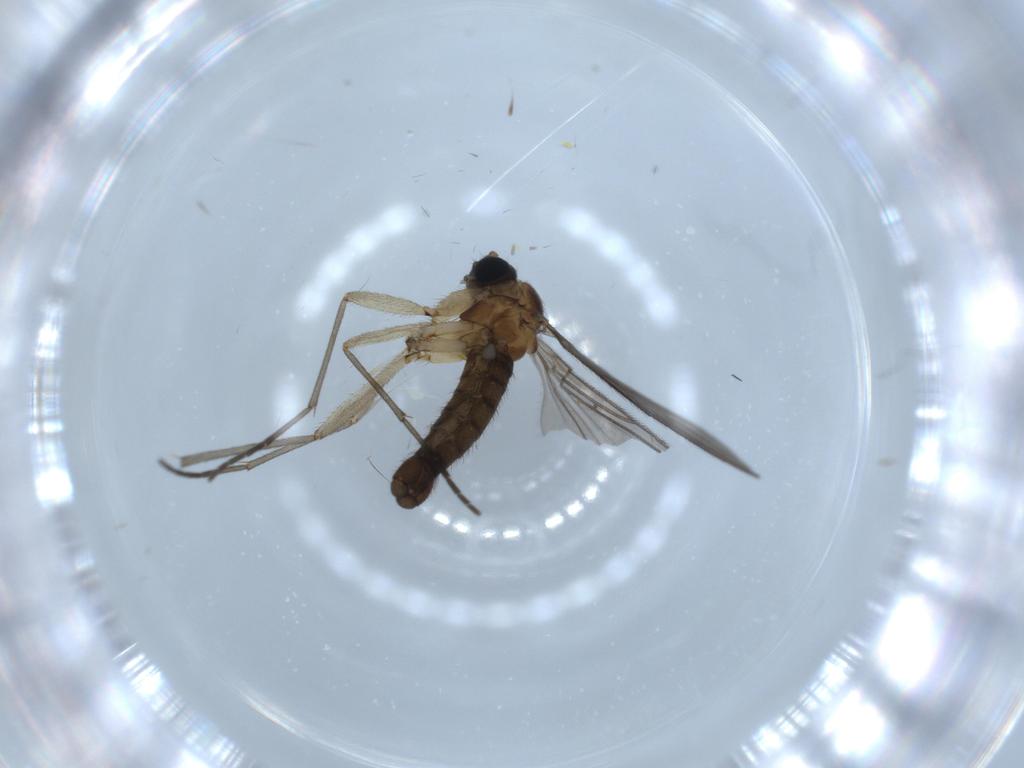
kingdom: Animalia
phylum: Arthropoda
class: Insecta
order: Diptera
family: Sciaridae
